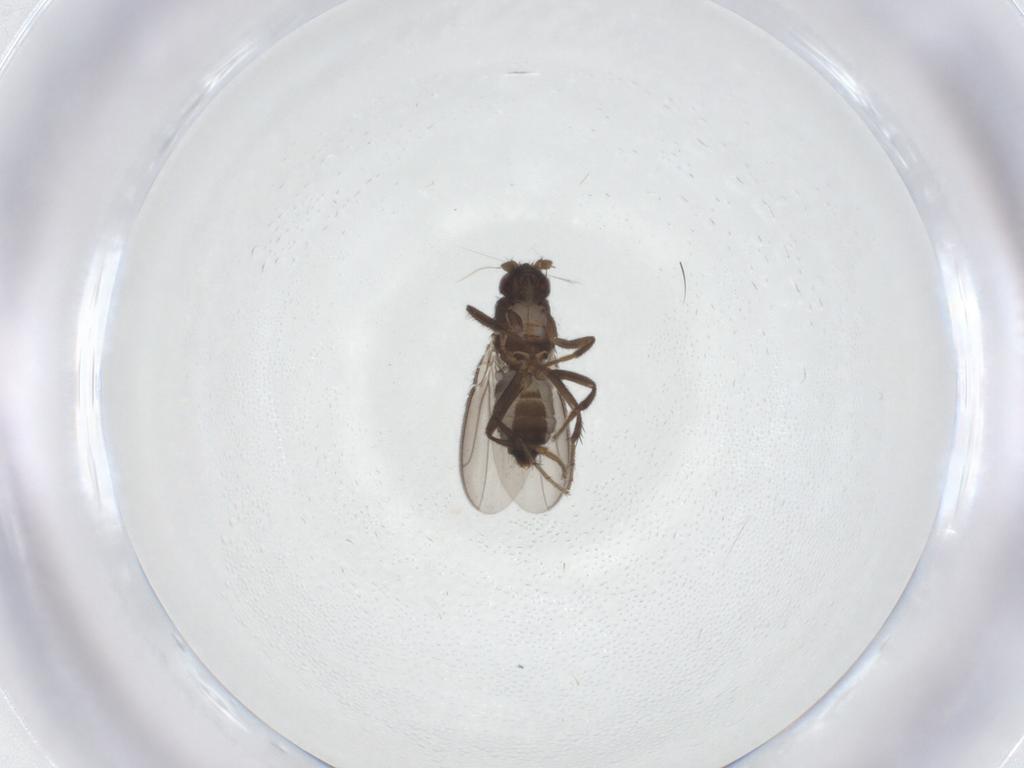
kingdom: Animalia
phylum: Arthropoda
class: Insecta
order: Diptera
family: Sphaeroceridae
